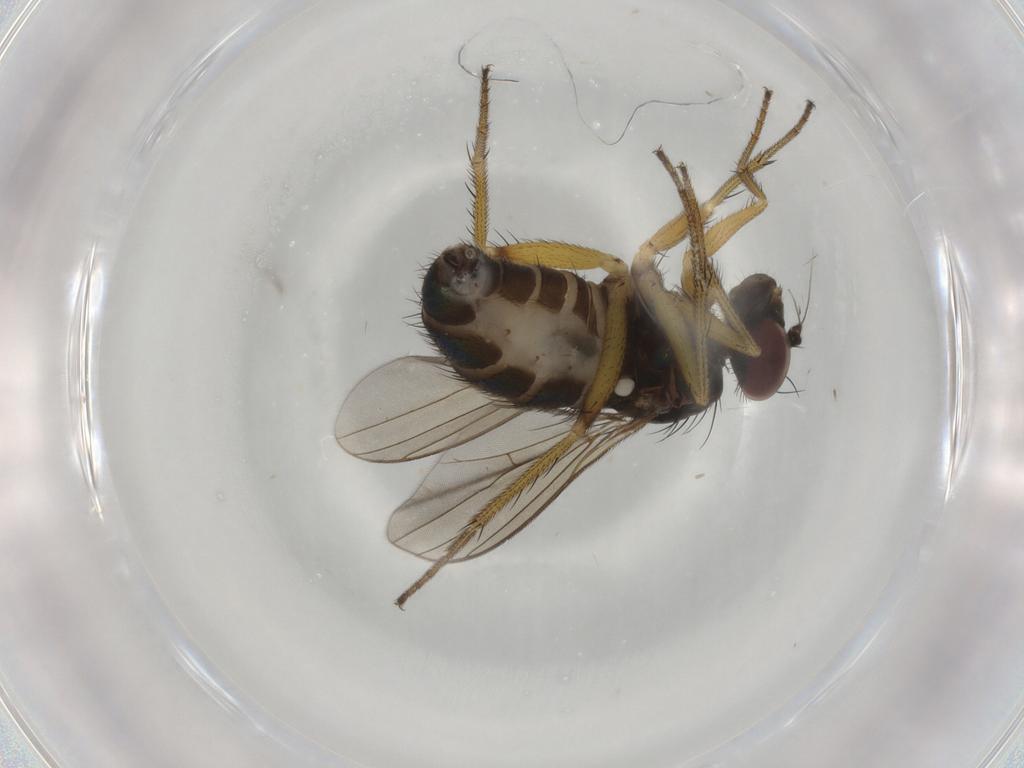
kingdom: Animalia
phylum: Arthropoda
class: Insecta
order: Diptera
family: Dolichopodidae
